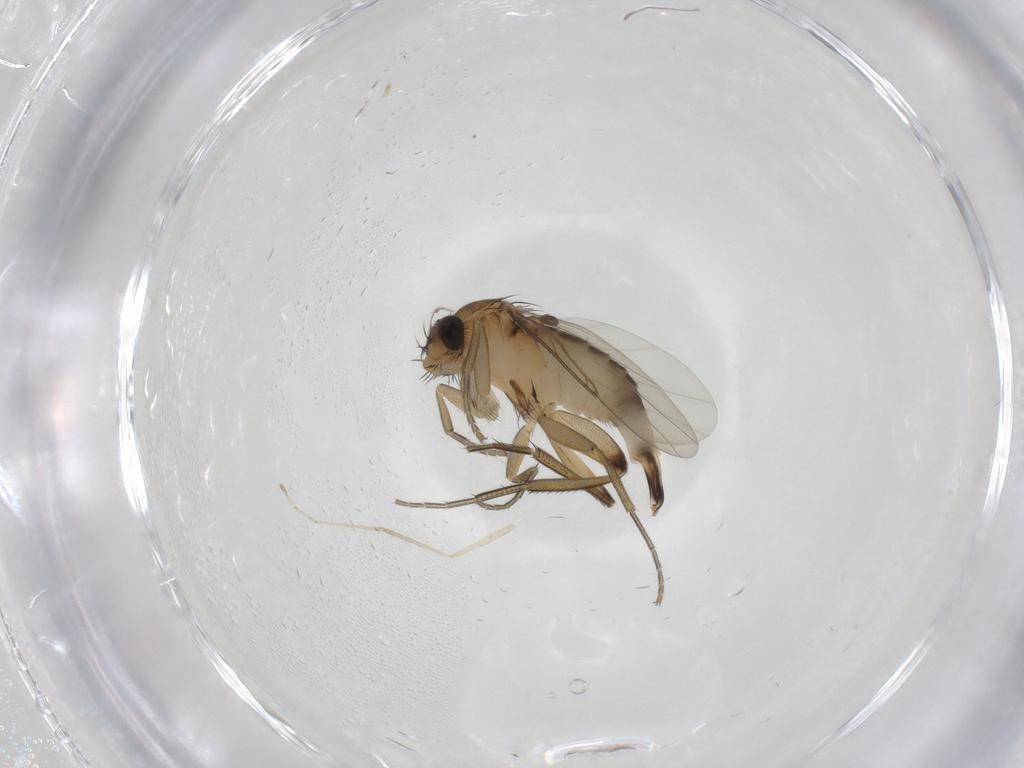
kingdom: Animalia
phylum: Arthropoda
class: Insecta
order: Diptera
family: Phoridae
